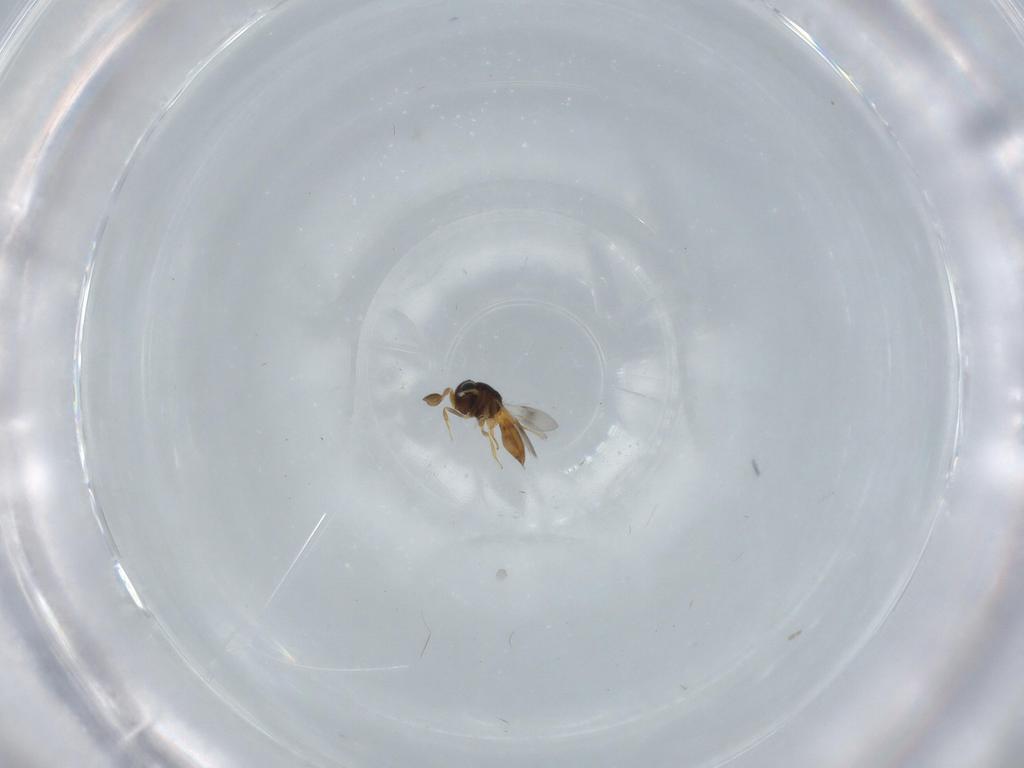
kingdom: Animalia
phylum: Arthropoda
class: Insecta
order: Hymenoptera
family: Scelionidae
